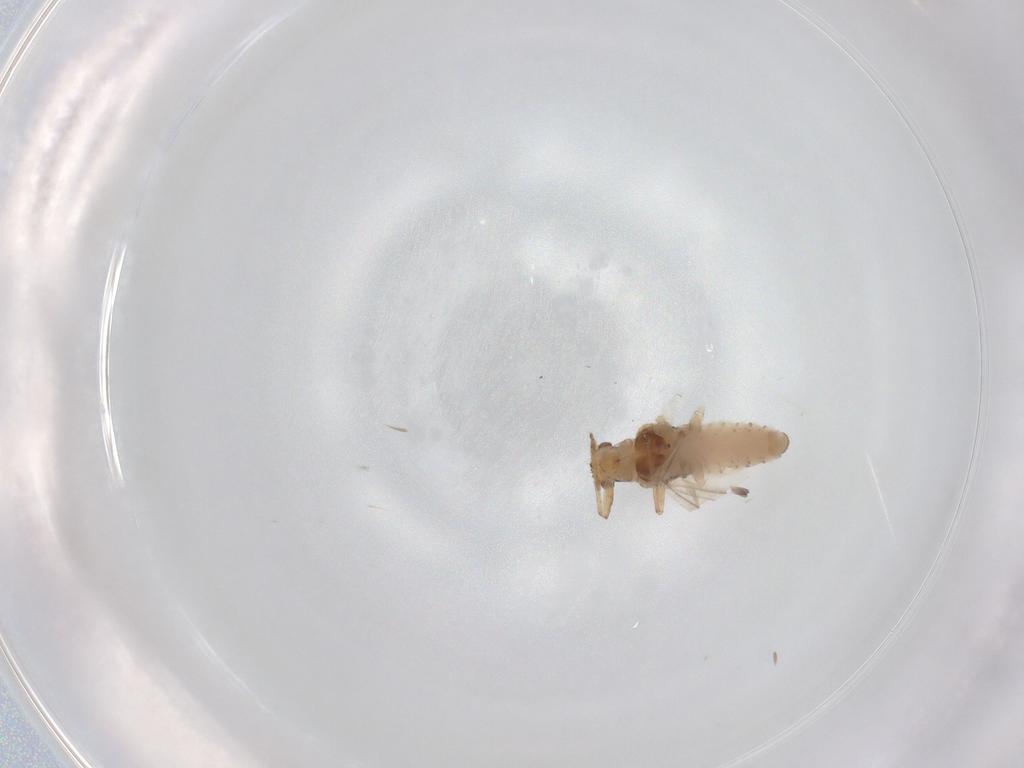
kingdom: Animalia
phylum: Arthropoda
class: Insecta
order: Hemiptera
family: Aphididae
